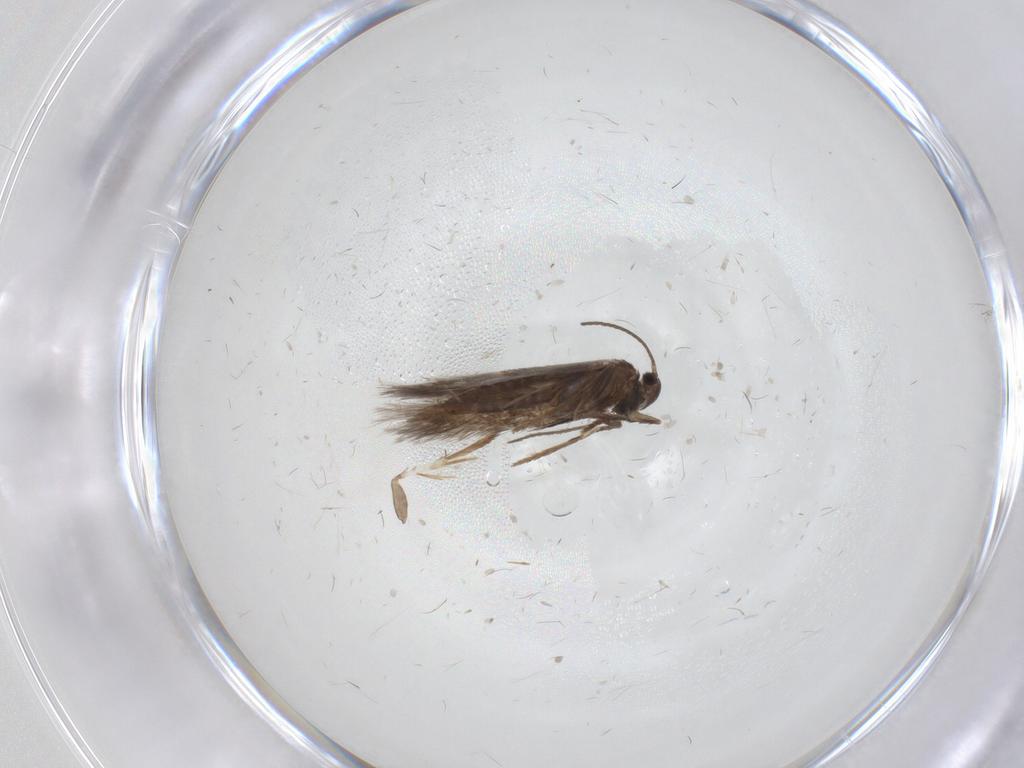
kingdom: Animalia
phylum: Arthropoda
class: Insecta
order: Lepidoptera
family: Heliozelidae
